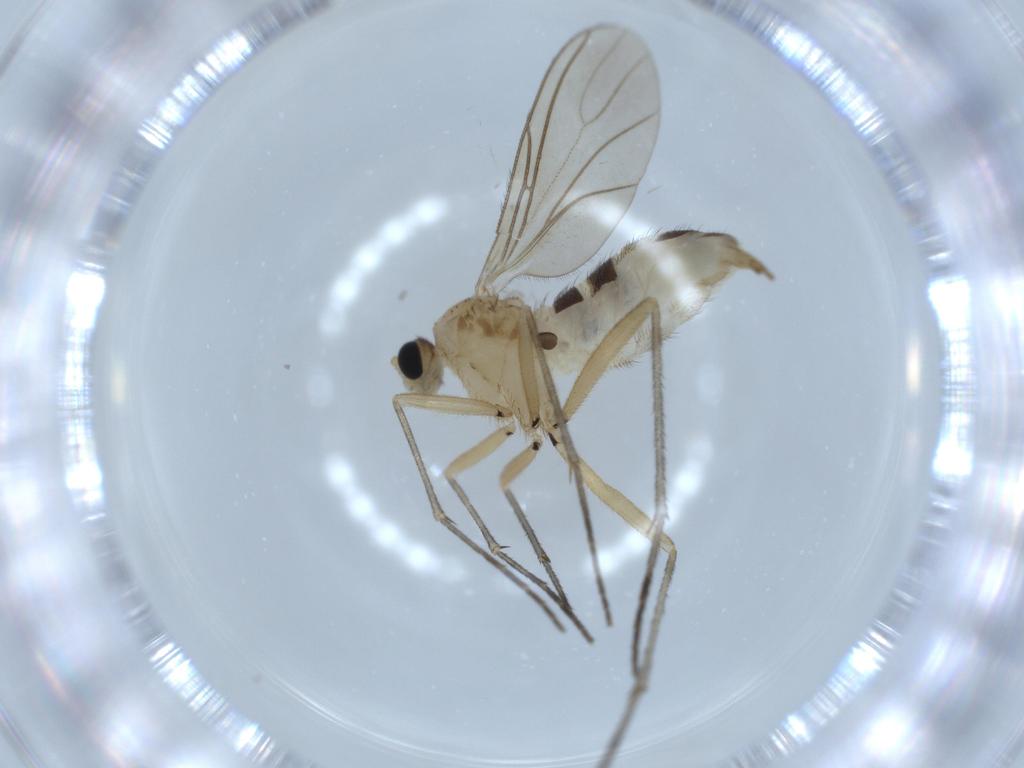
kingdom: Animalia
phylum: Arthropoda
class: Insecta
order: Diptera
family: Sciaridae
